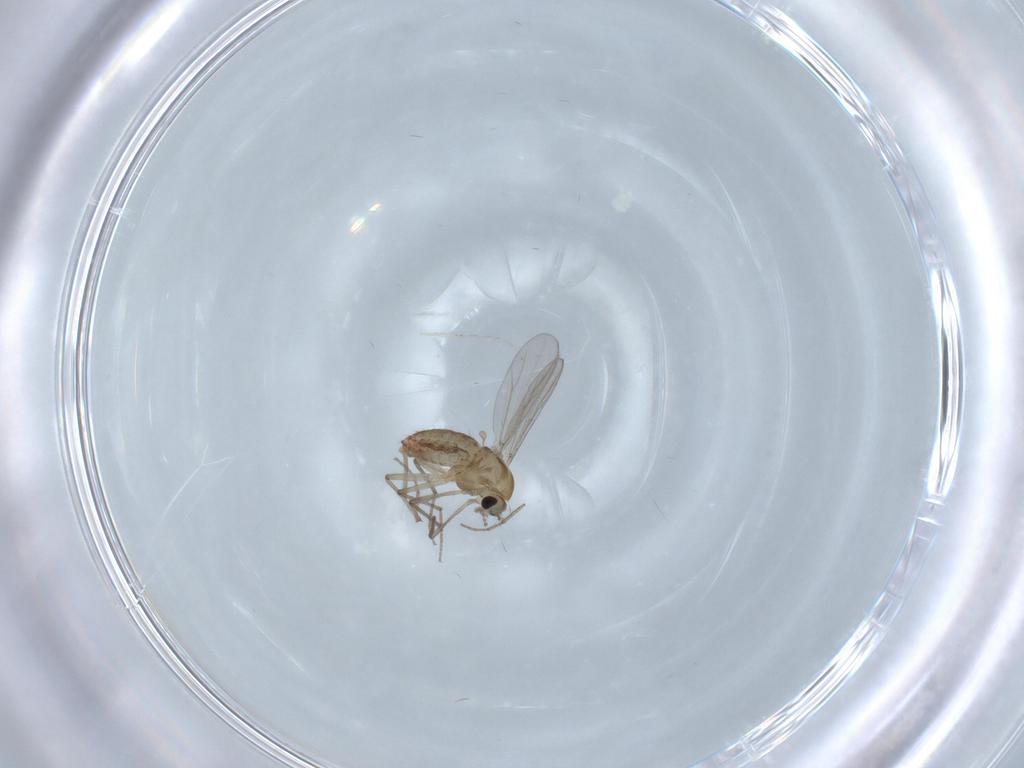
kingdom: Animalia
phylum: Arthropoda
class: Insecta
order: Diptera
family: Chironomidae
